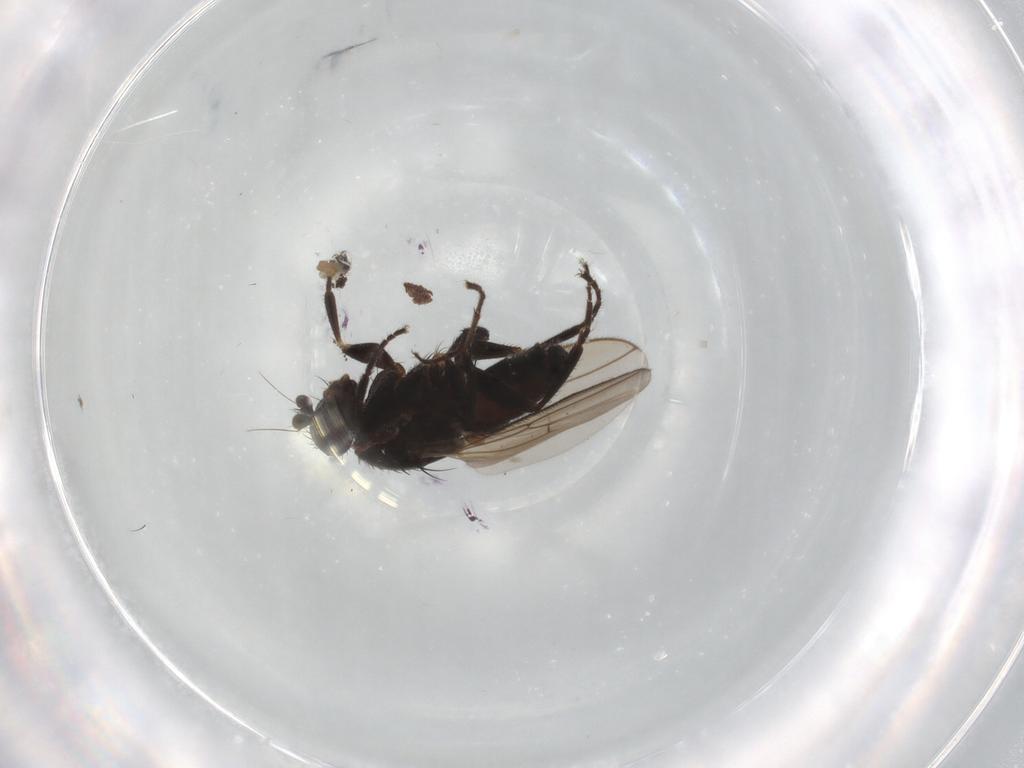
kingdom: Animalia
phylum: Arthropoda
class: Insecta
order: Diptera
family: Sphaeroceridae
